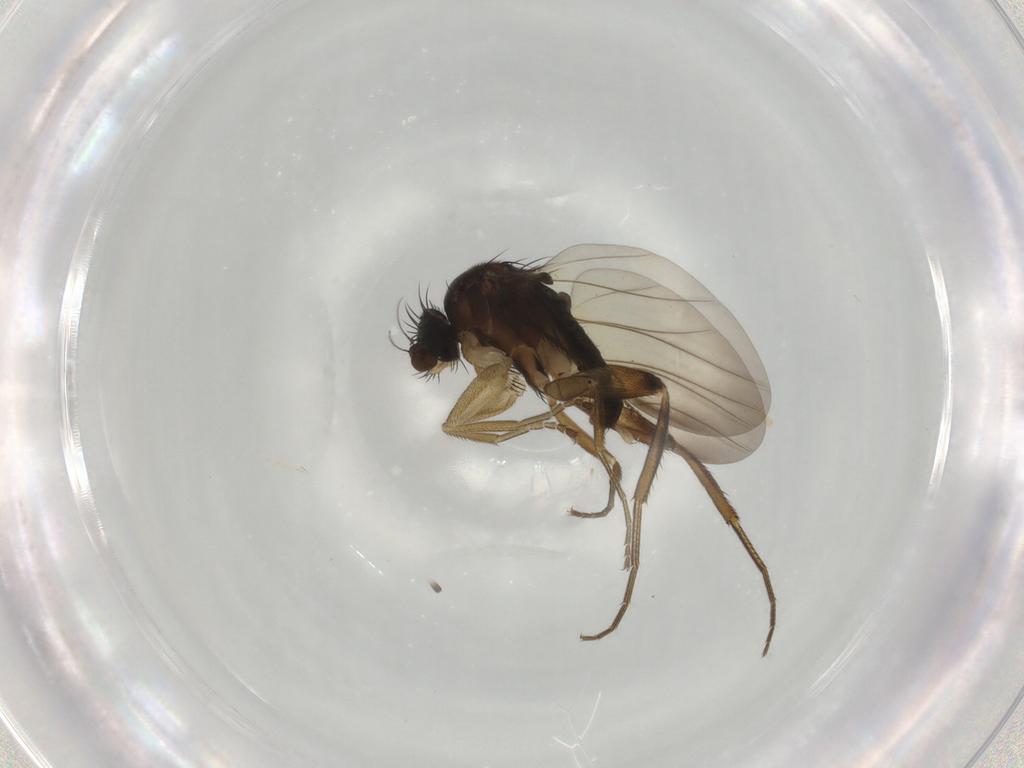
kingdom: Animalia
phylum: Arthropoda
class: Insecta
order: Diptera
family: Phoridae
